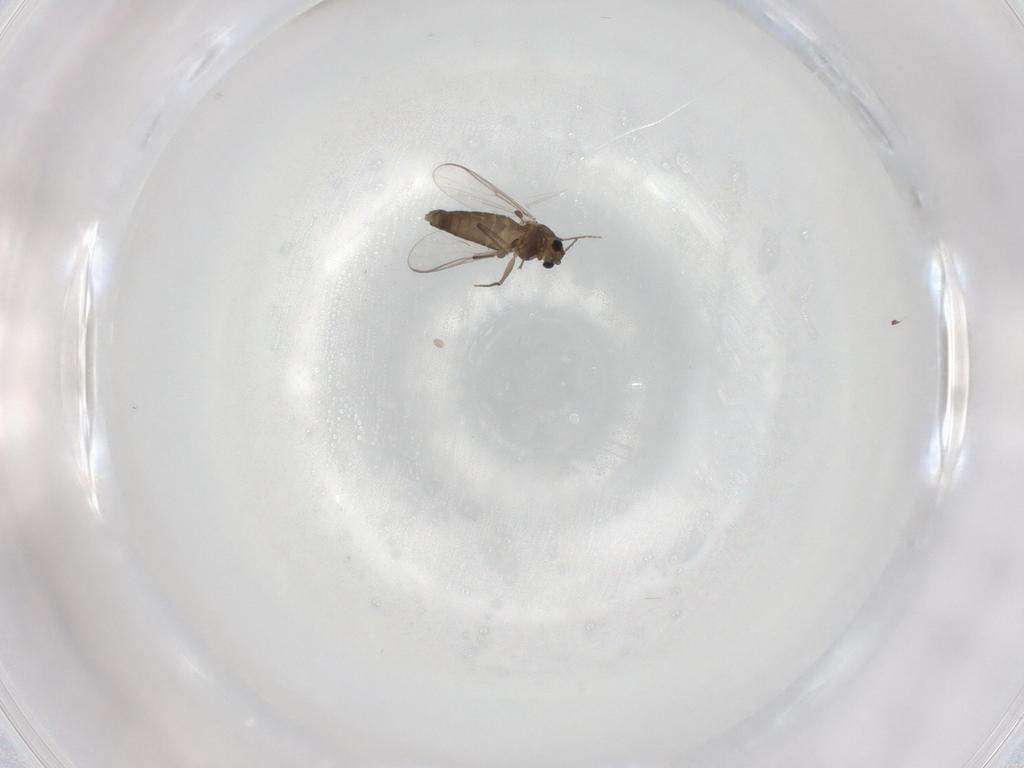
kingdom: Animalia
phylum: Arthropoda
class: Insecta
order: Diptera
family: Chironomidae
